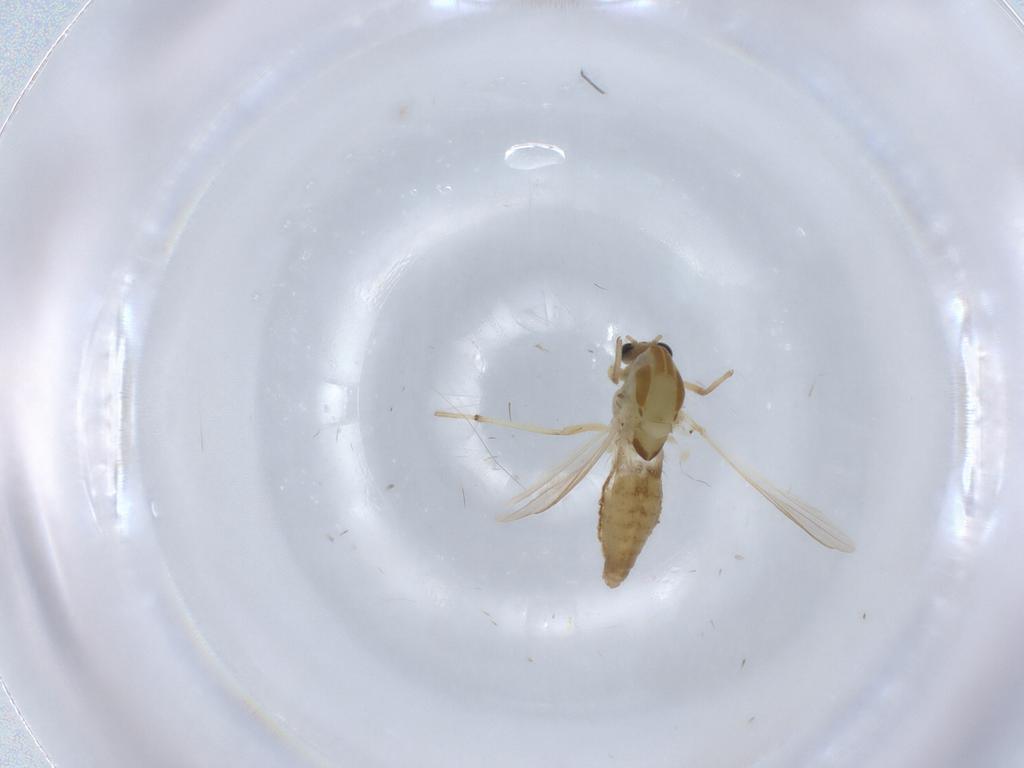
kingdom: Animalia
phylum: Arthropoda
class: Insecta
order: Diptera
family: Chironomidae
